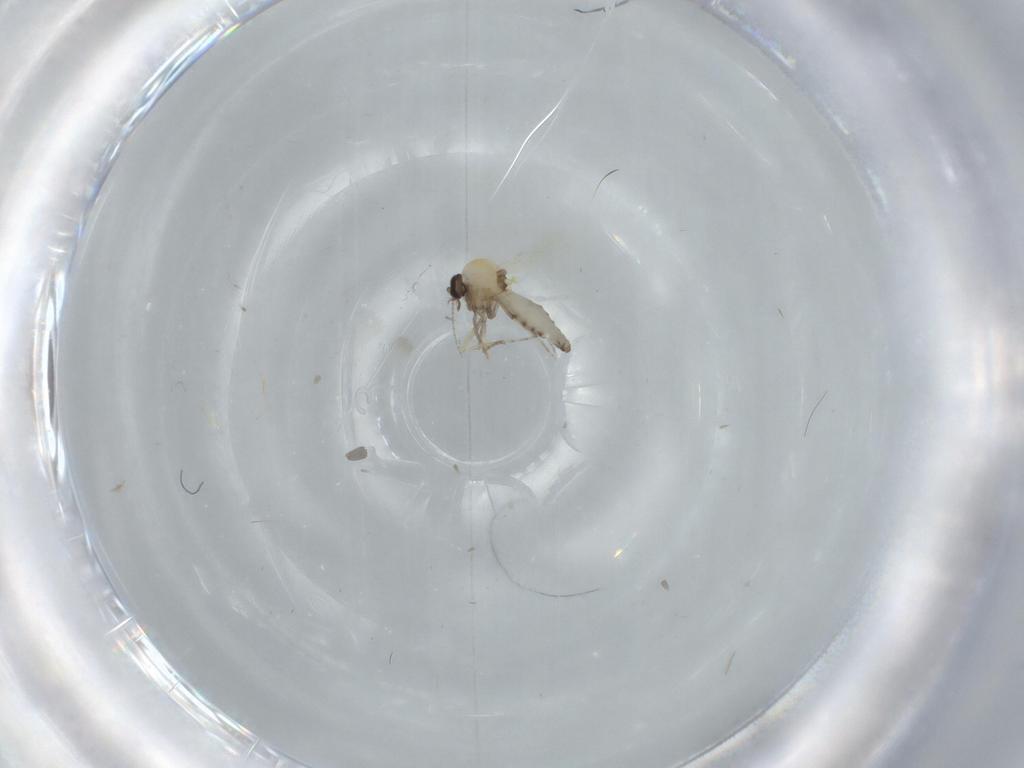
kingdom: Animalia
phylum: Arthropoda
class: Insecta
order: Diptera
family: Ceratopogonidae
